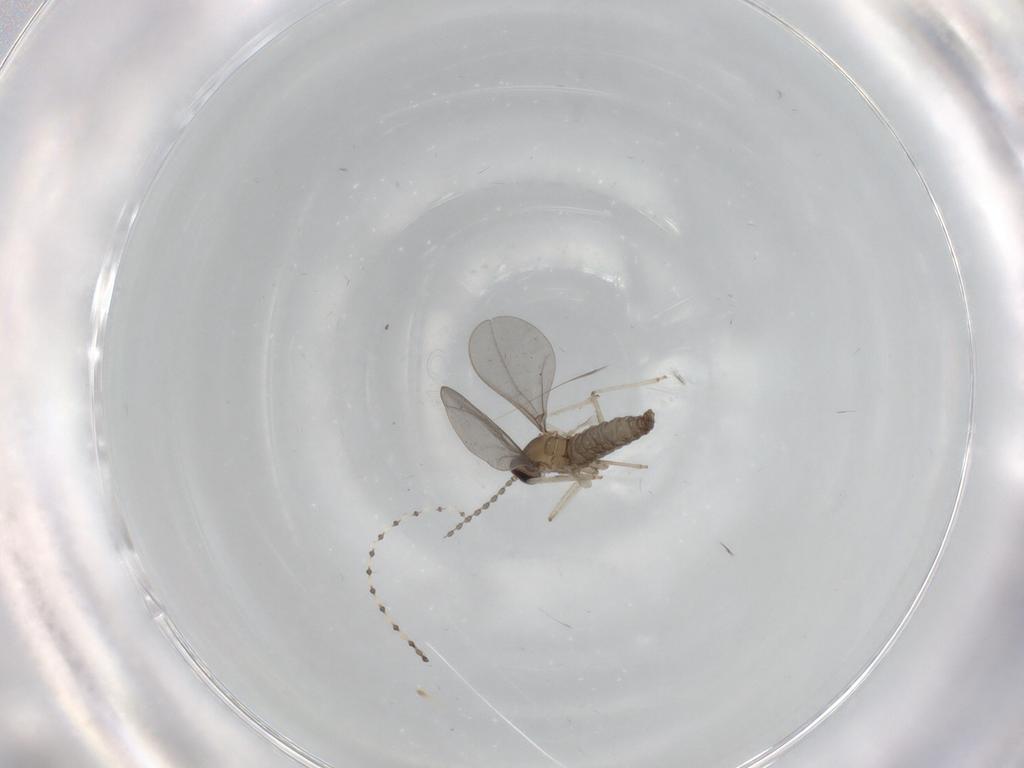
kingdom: Animalia
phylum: Arthropoda
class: Insecta
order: Diptera
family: Cecidomyiidae
